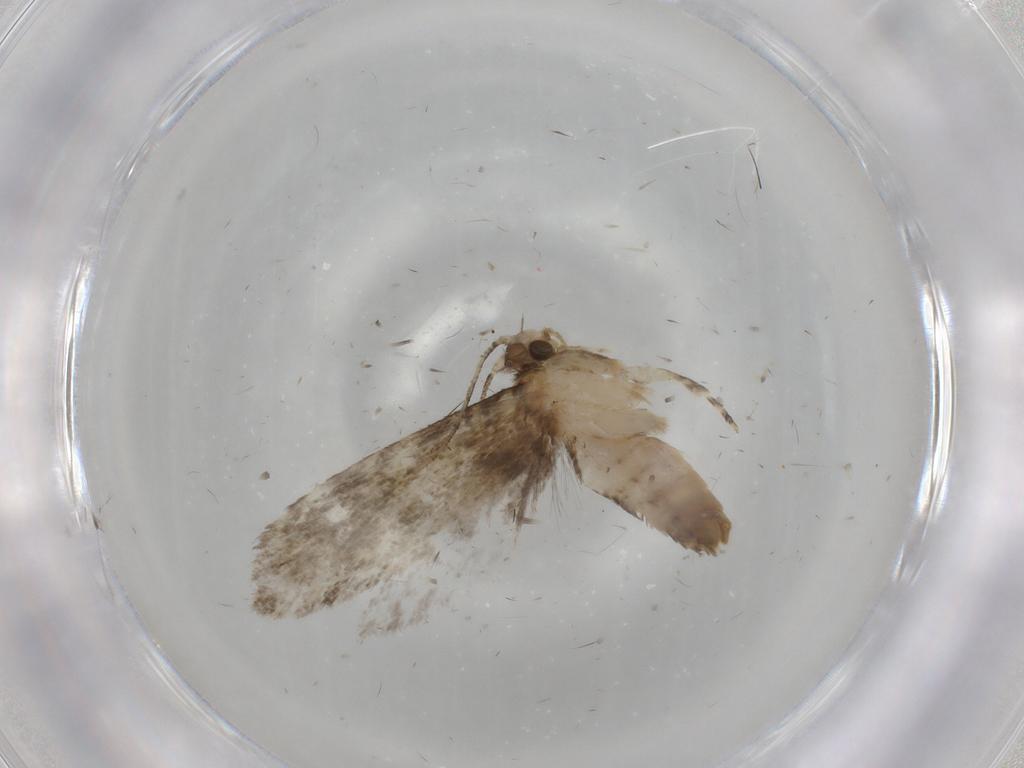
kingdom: Animalia
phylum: Arthropoda
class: Insecta
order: Lepidoptera
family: Tineidae
